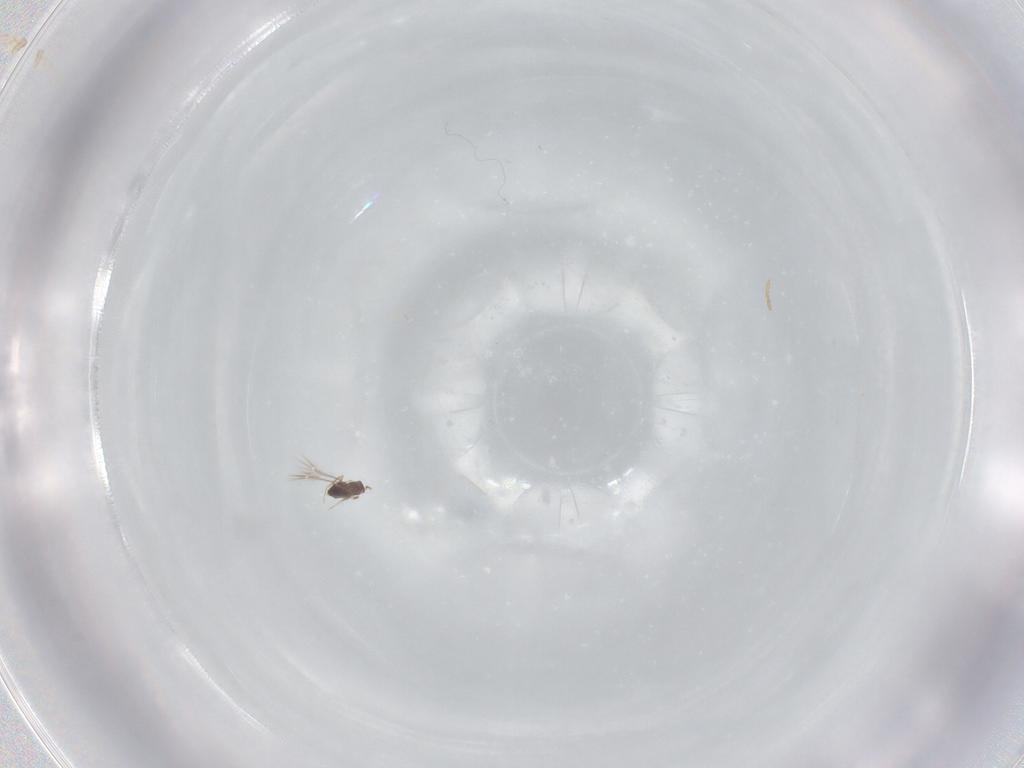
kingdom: Animalia
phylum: Arthropoda
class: Insecta
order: Hymenoptera
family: Mymaridae
